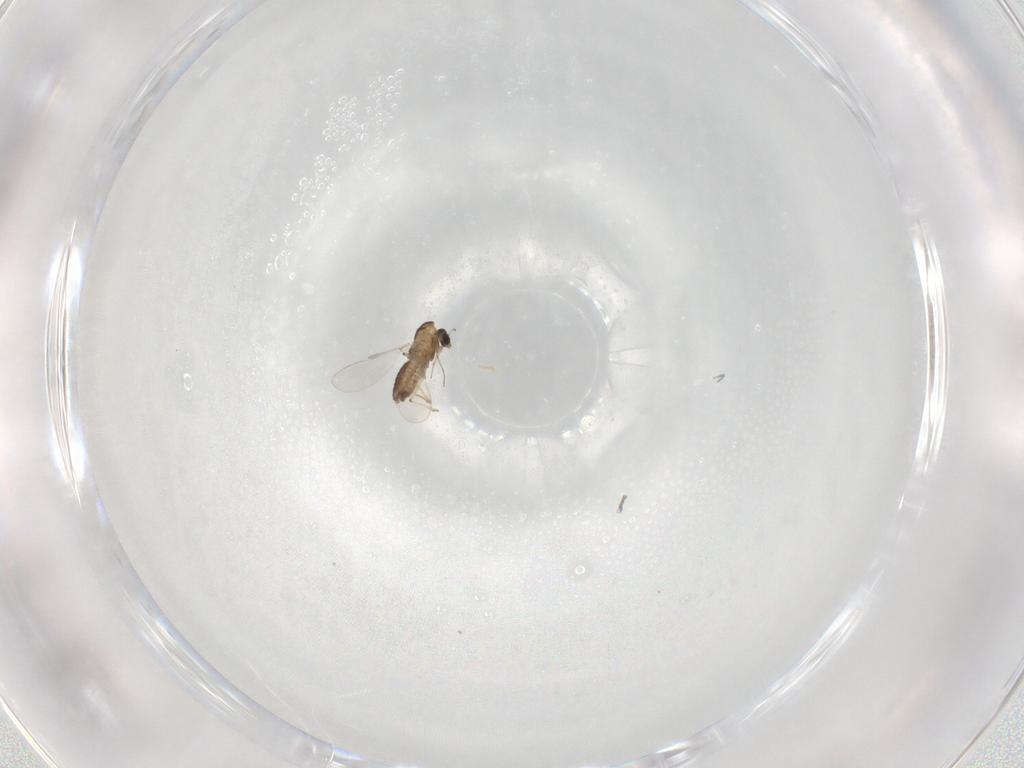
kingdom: Animalia
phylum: Arthropoda
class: Insecta
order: Diptera
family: Chironomidae
